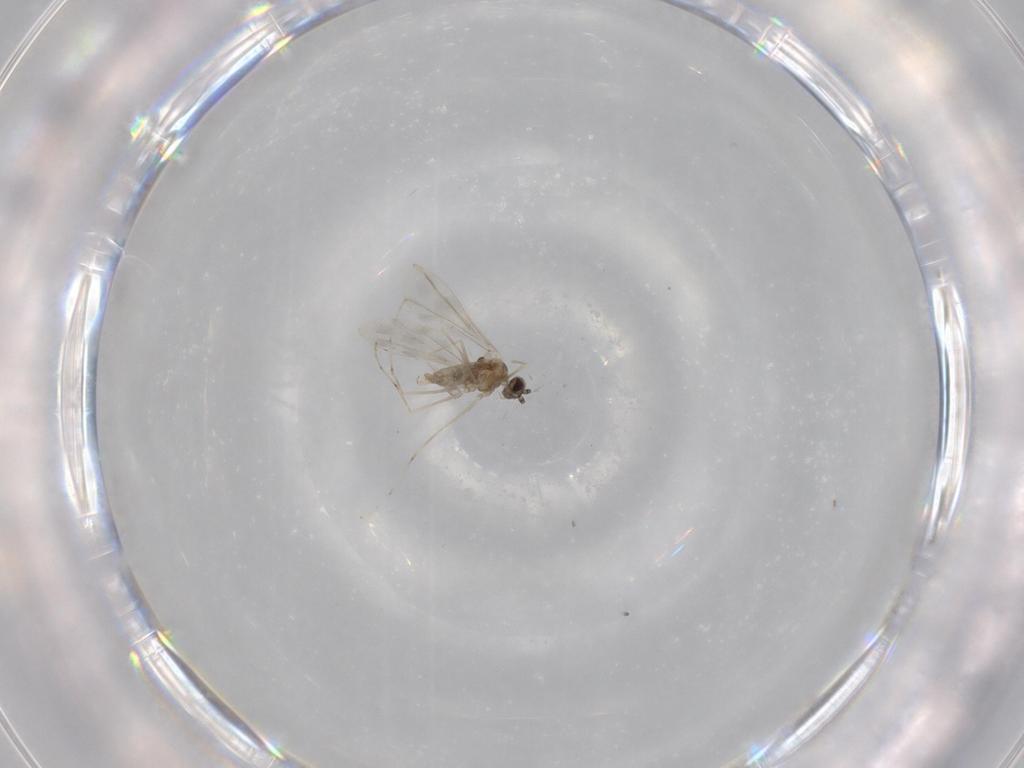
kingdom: Animalia
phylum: Arthropoda
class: Insecta
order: Diptera
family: Cecidomyiidae
